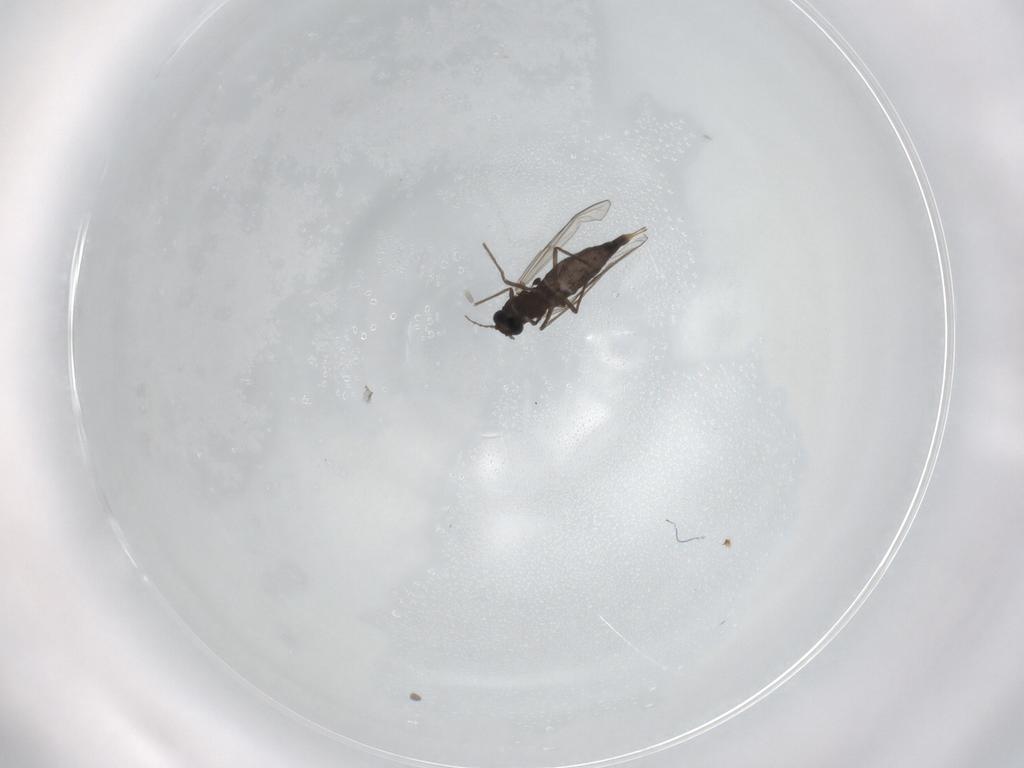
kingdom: Animalia
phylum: Arthropoda
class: Insecta
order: Diptera
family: Chironomidae
